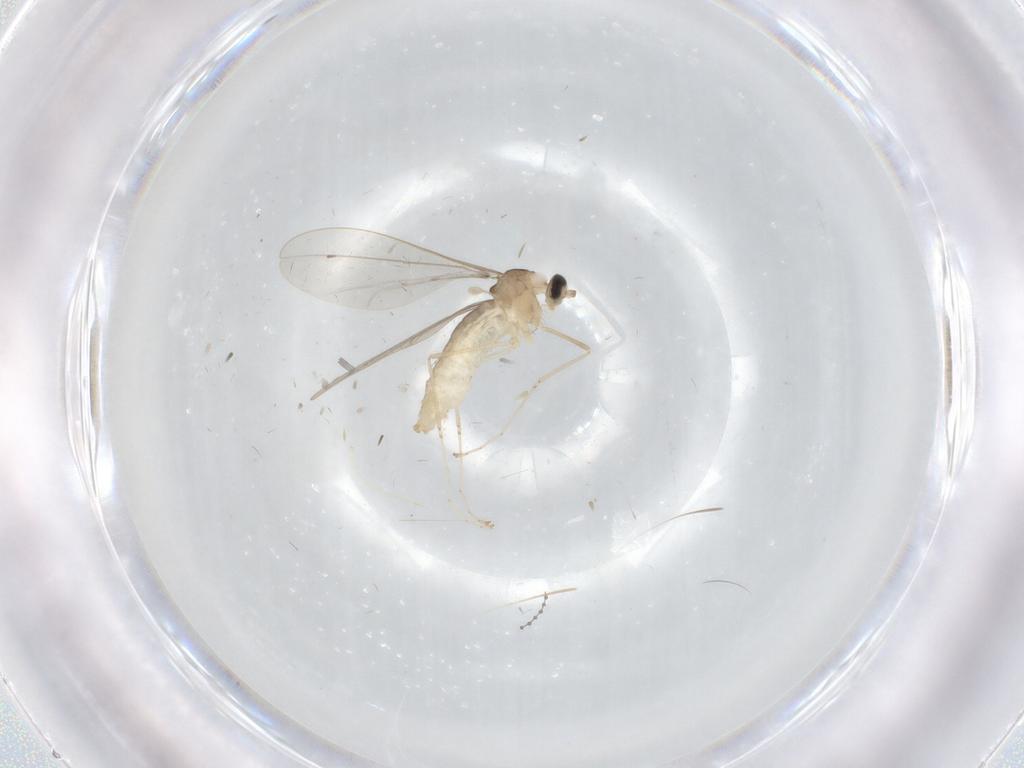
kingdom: Animalia
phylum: Arthropoda
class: Insecta
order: Diptera
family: Cecidomyiidae
